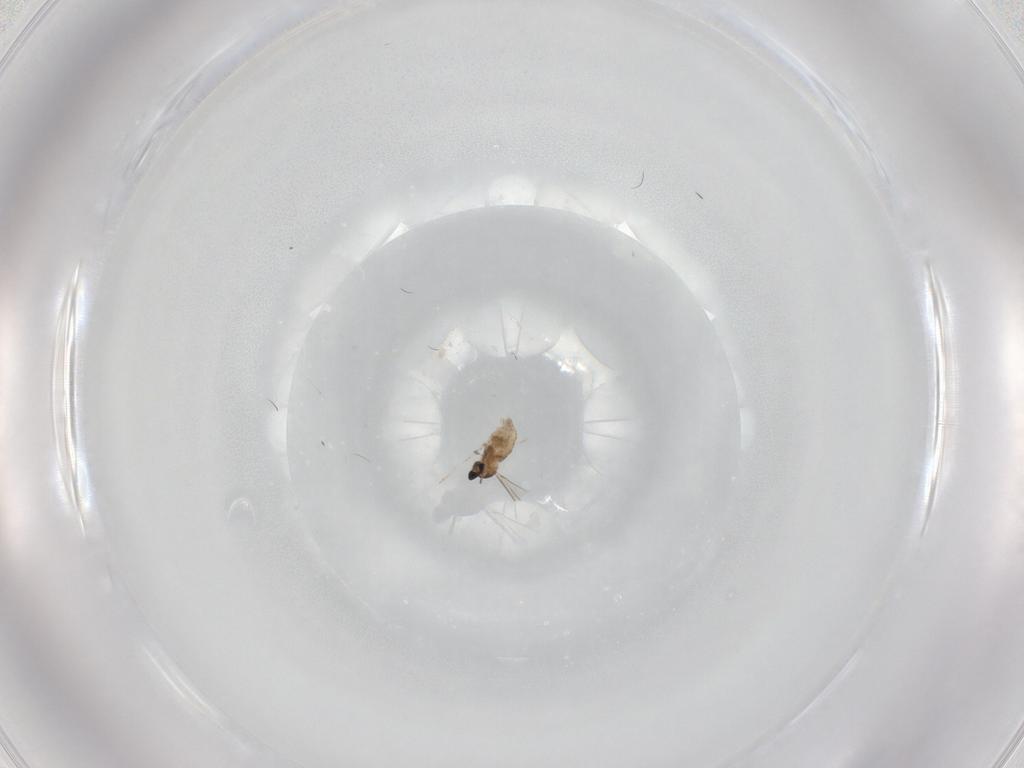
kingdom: Animalia
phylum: Arthropoda
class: Insecta
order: Diptera
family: Cecidomyiidae
